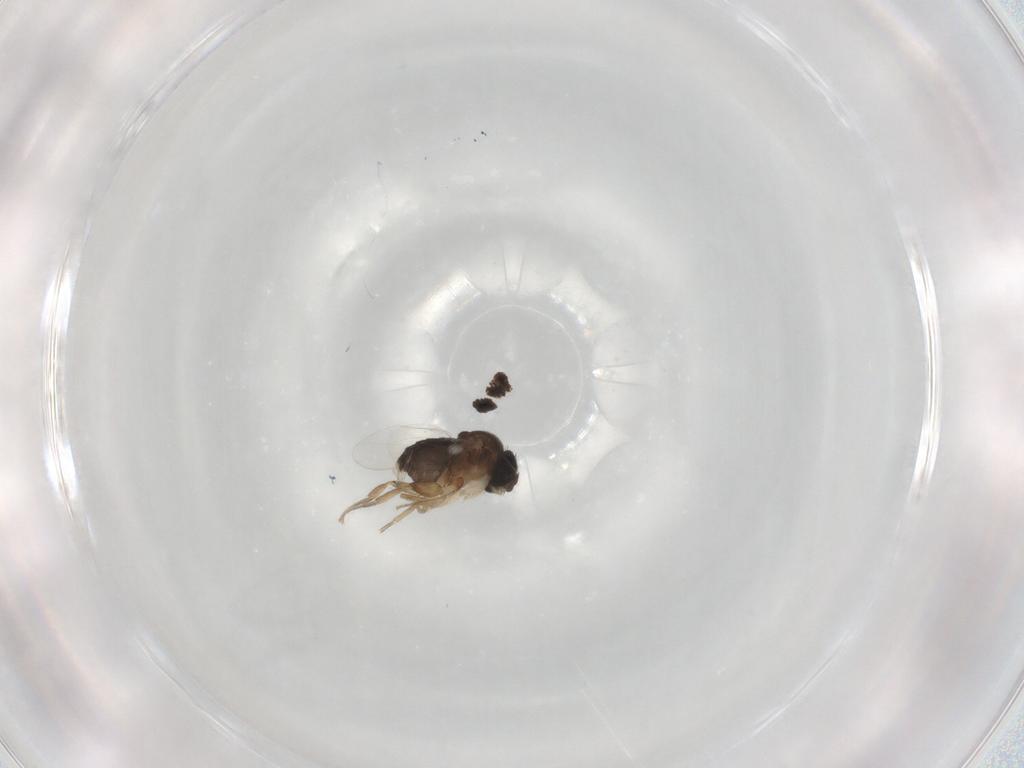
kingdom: Animalia
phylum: Arthropoda
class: Insecta
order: Diptera
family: Phoridae
